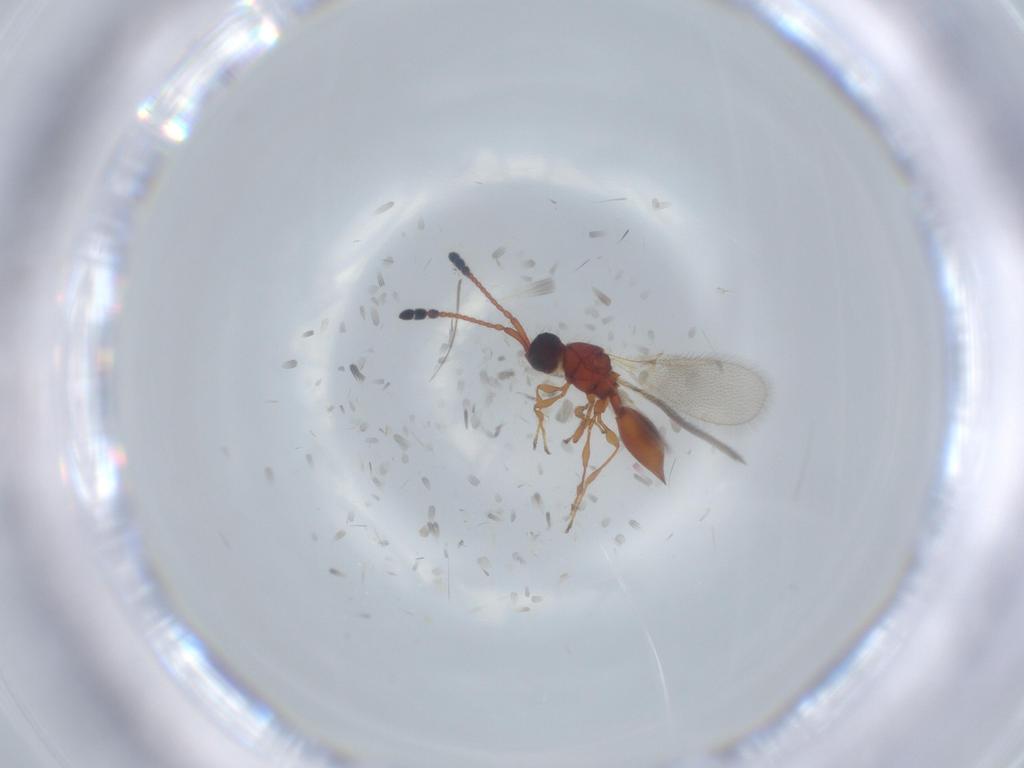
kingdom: Animalia
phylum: Arthropoda
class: Insecta
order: Hymenoptera
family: Diapriidae
